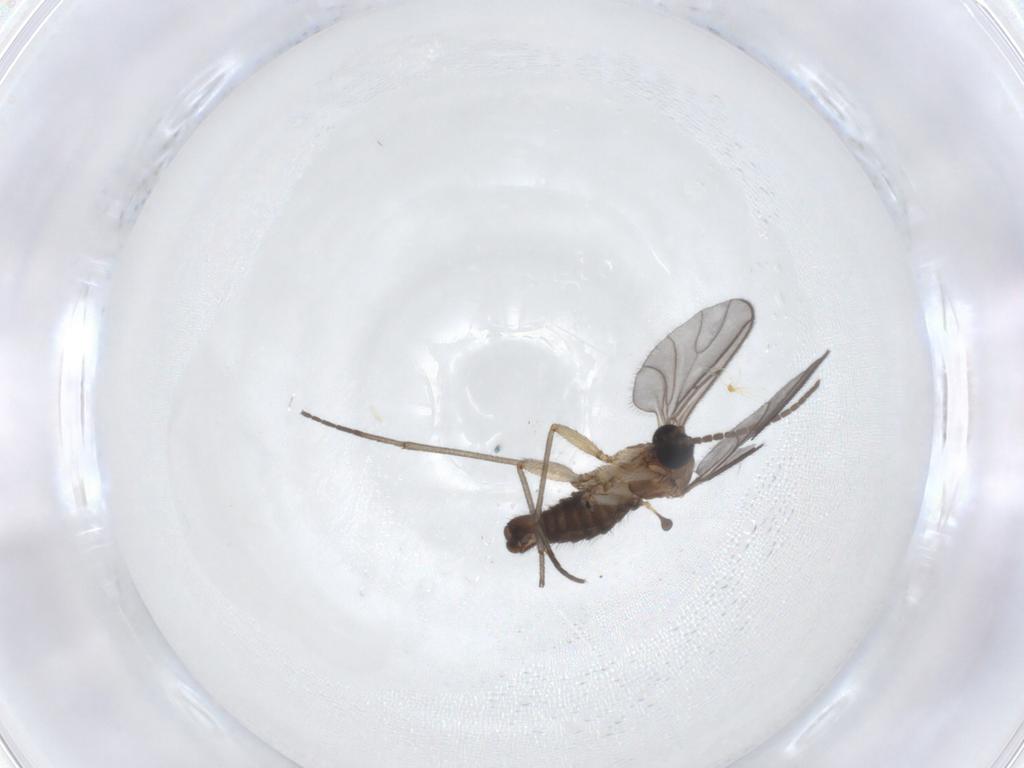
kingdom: Animalia
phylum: Arthropoda
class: Insecta
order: Diptera
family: Sciaridae
